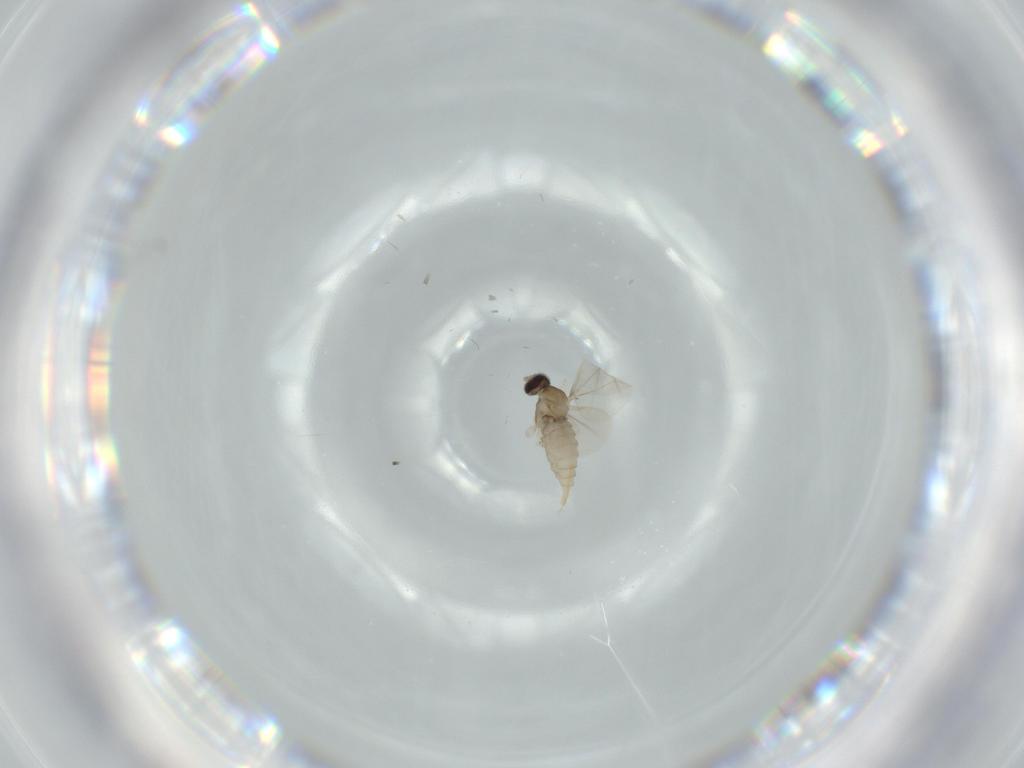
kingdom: Animalia
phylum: Arthropoda
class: Insecta
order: Diptera
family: Cecidomyiidae
